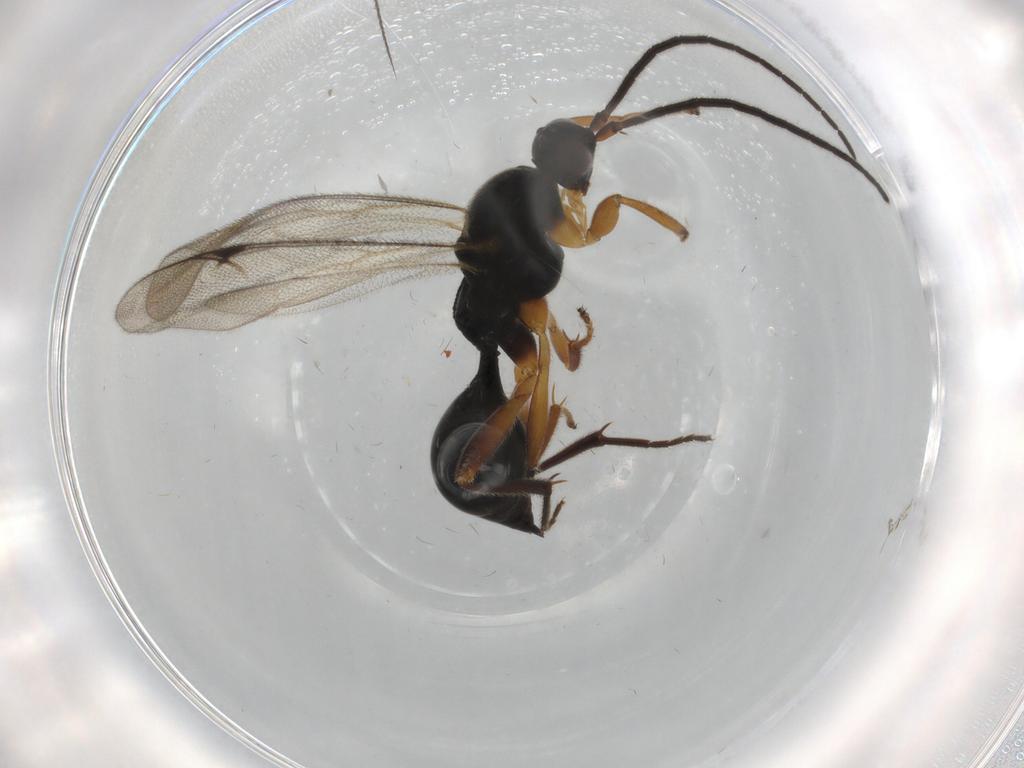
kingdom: Animalia
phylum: Arthropoda
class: Insecta
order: Hymenoptera
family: Proctotrupidae
